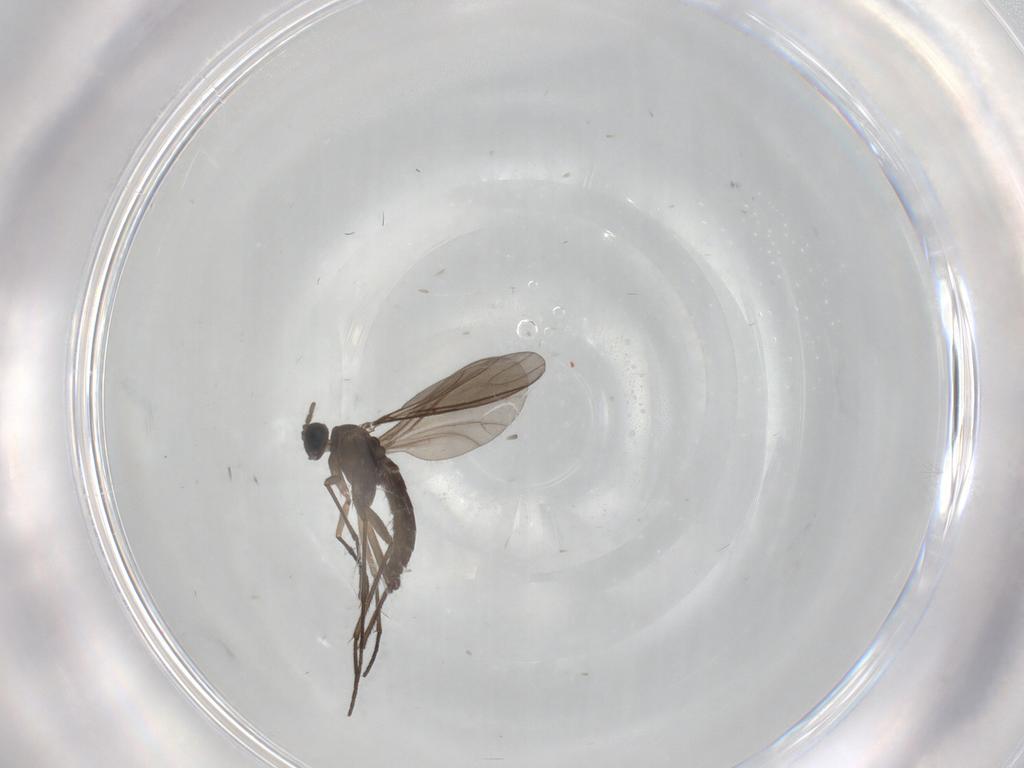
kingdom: Animalia
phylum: Arthropoda
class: Insecta
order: Diptera
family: Sciaridae
